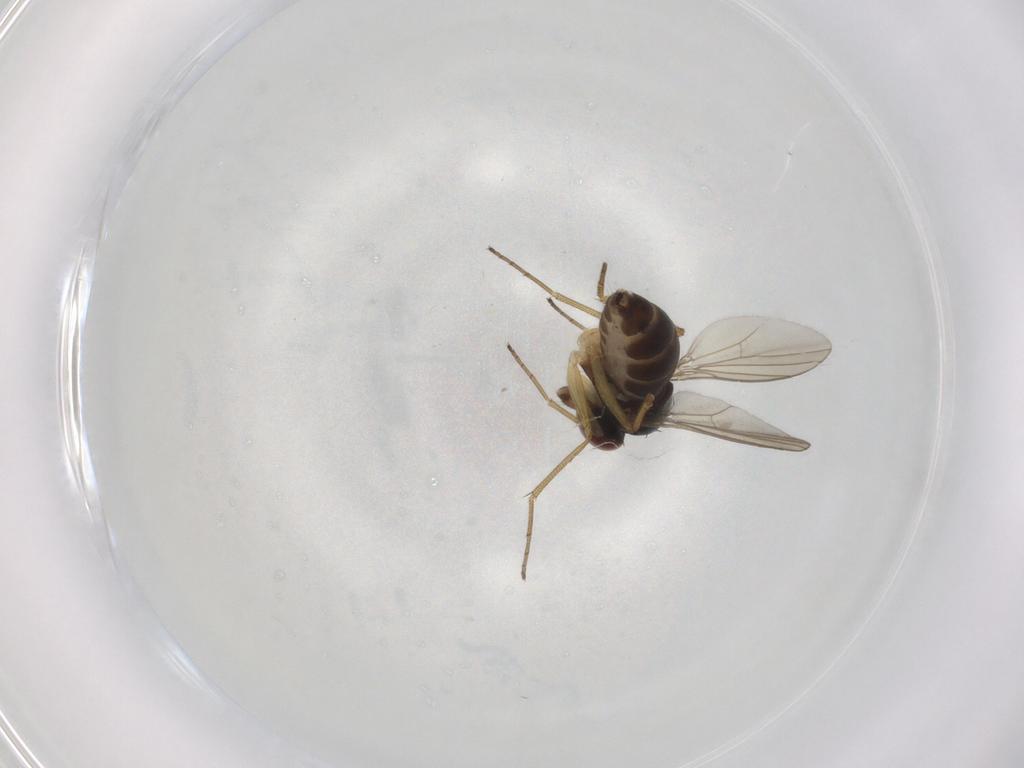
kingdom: Animalia
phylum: Arthropoda
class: Insecta
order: Diptera
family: Dolichopodidae
